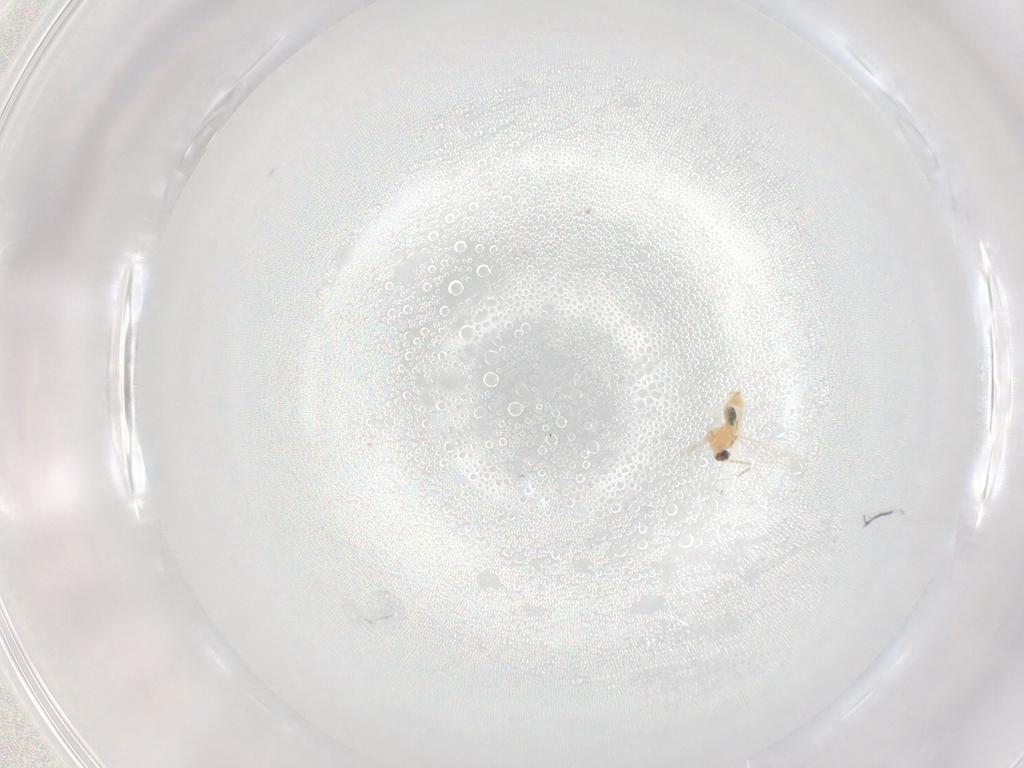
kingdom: Animalia
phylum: Arthropoda
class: Insecta
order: Diptera
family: Cecidomyiidae
